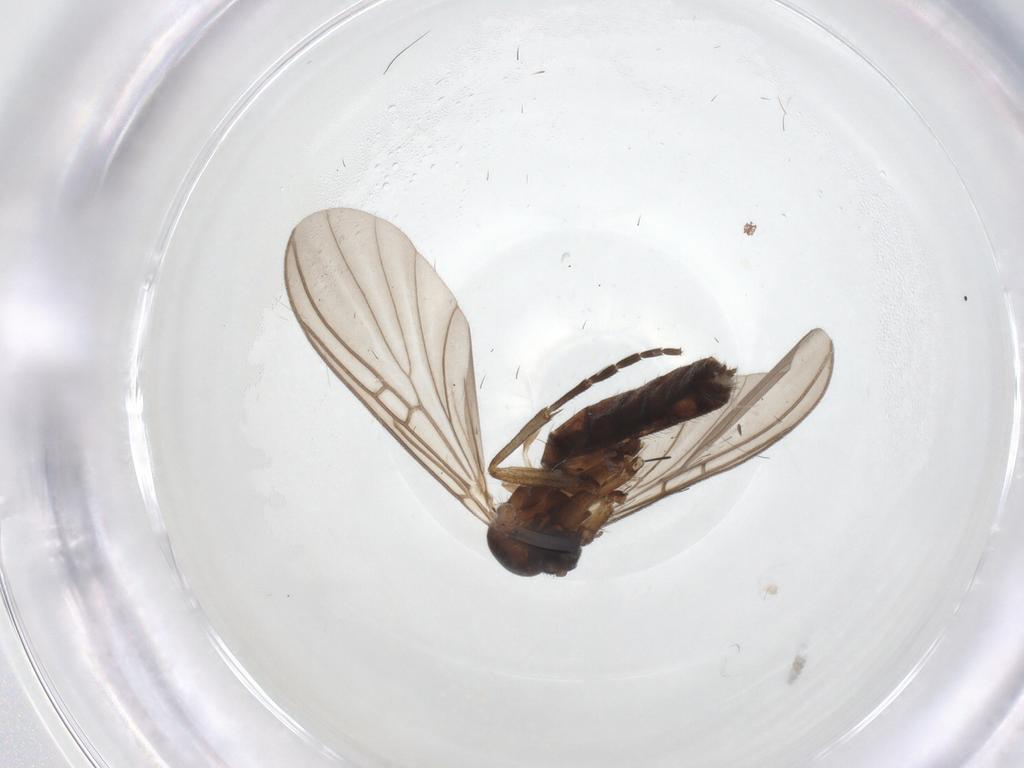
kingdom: Animalia
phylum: Arthropoda
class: Insecta
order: Diptera
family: Ceratopogonidae
